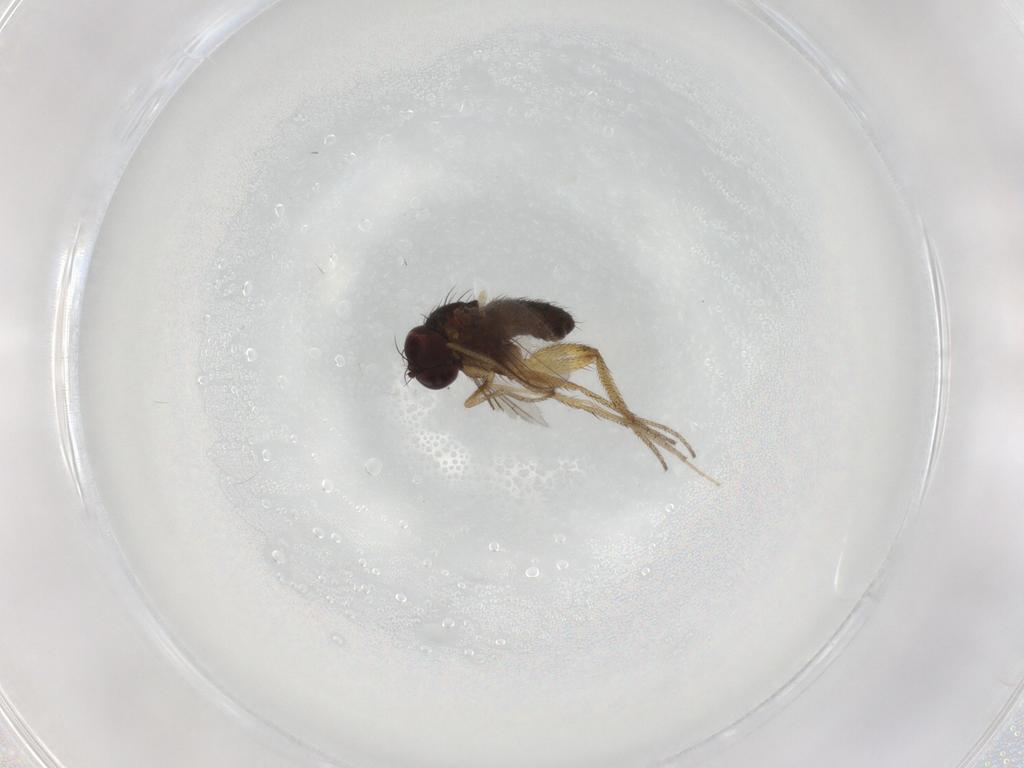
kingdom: Animalia
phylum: Arthropoda
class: Insecta
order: Diptera
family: Dolichopodidae
